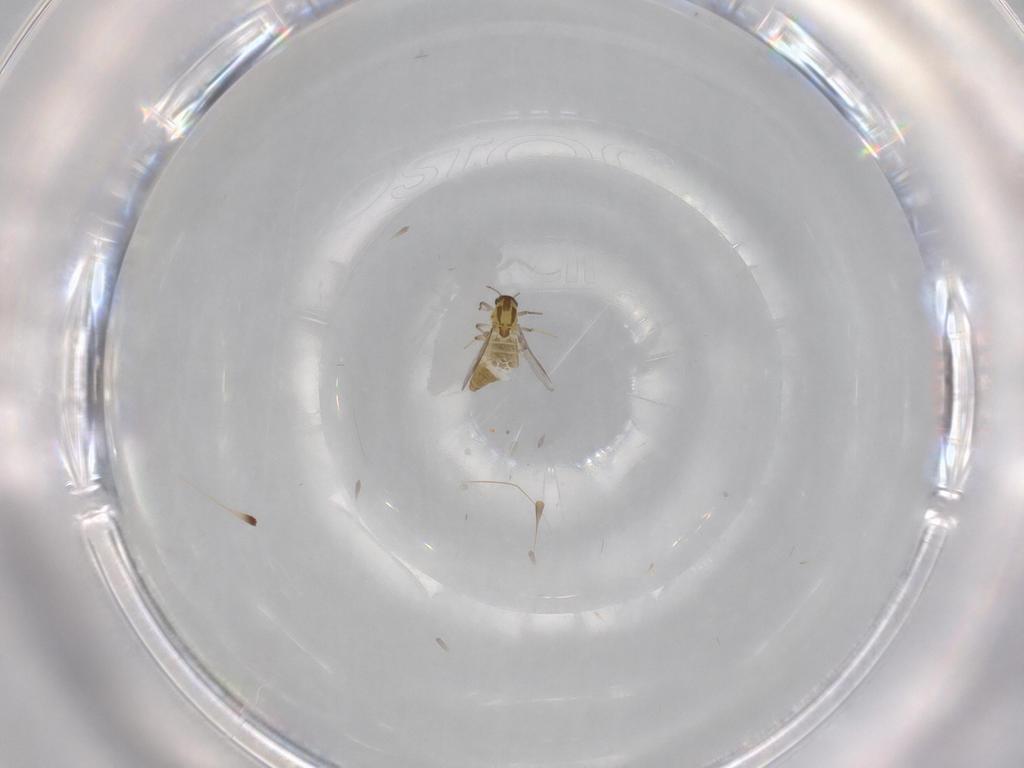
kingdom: Animalia
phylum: Arthropoda
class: Insecta
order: Diptera
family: Chironomidae
